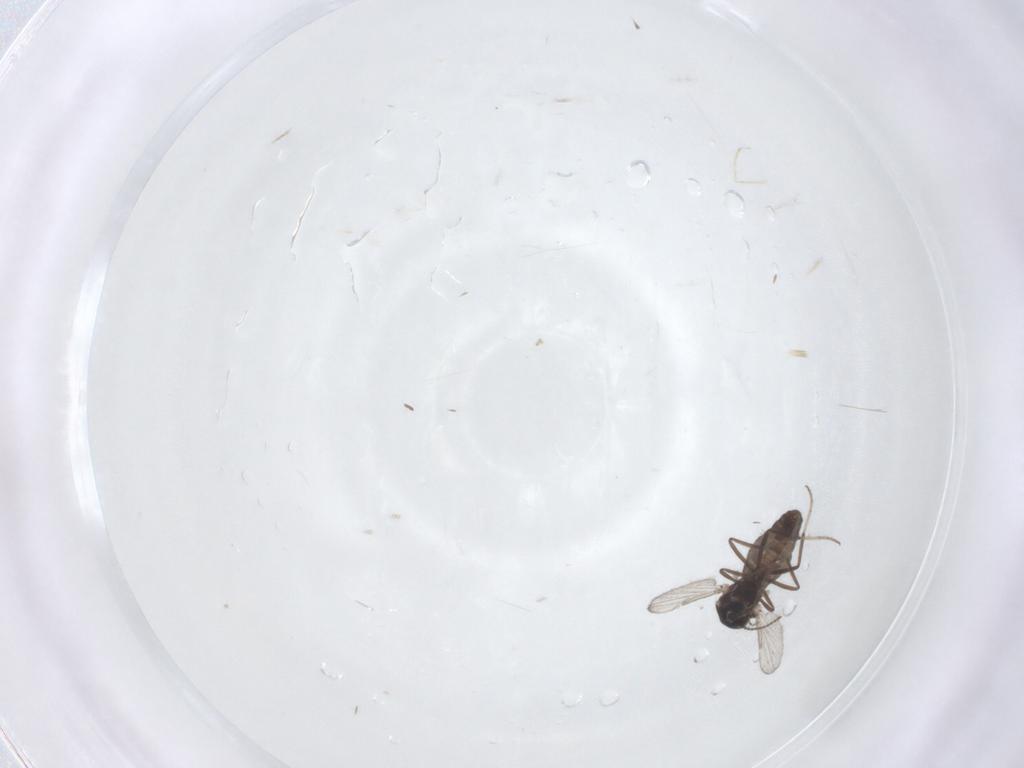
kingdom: Animalia
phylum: Arthropoda
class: Insecta
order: Diptera
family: Ceratopogonidae
